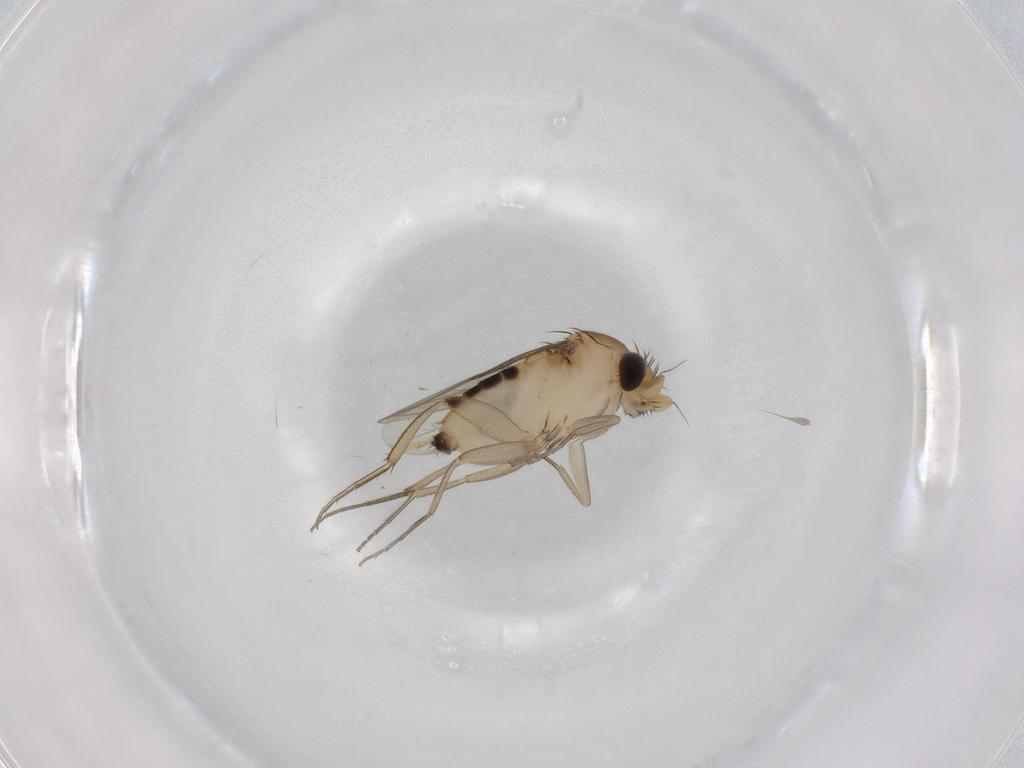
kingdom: Animalia
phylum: Arthropoda
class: Insecta
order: Diptera
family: Phoridae
